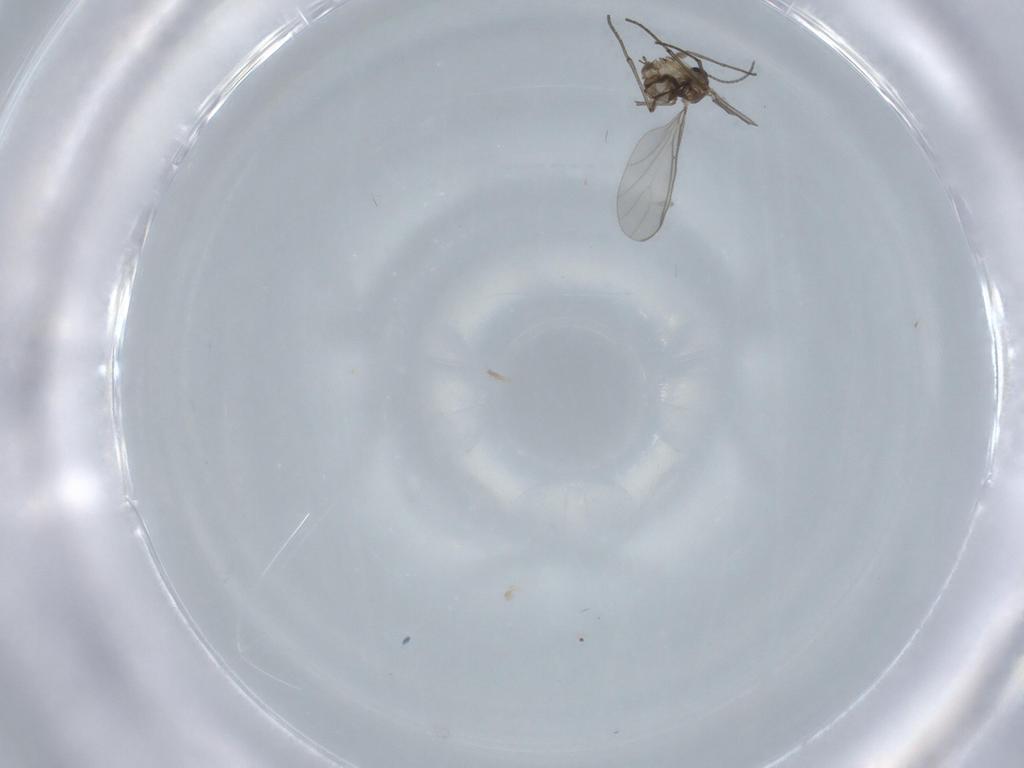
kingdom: Animalia
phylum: Arthropoda
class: Insecta
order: Diptera
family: Sciaridae
